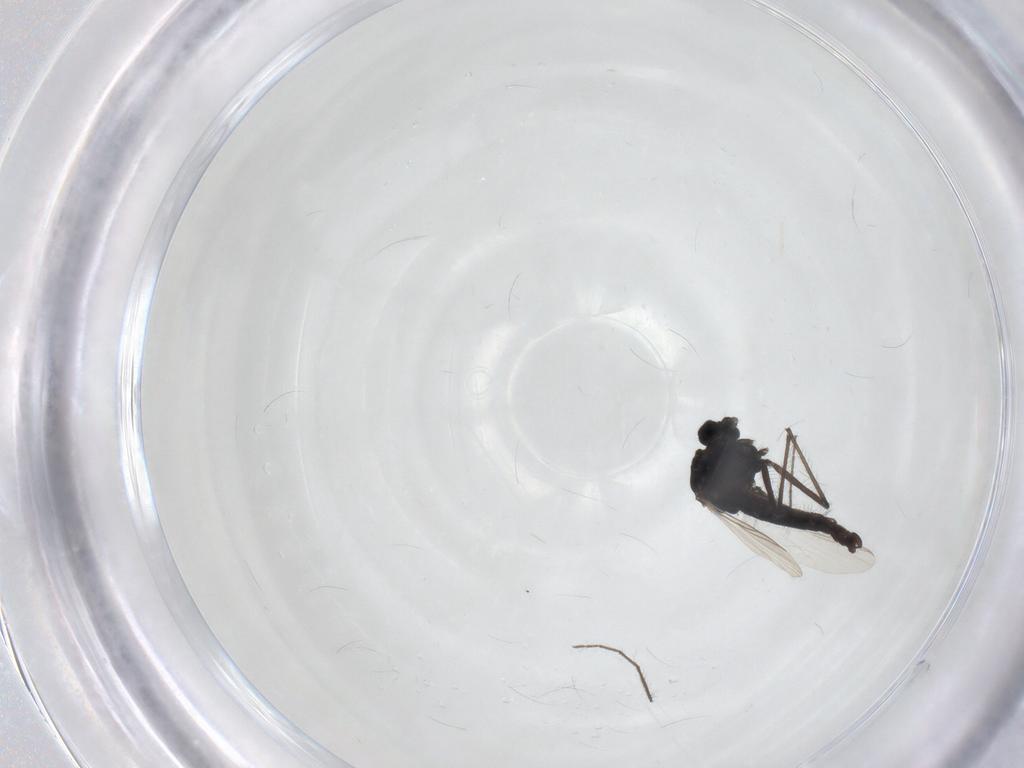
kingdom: Animalia
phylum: Arthropoda
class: Insecta
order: Diptera
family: Chironomidae
